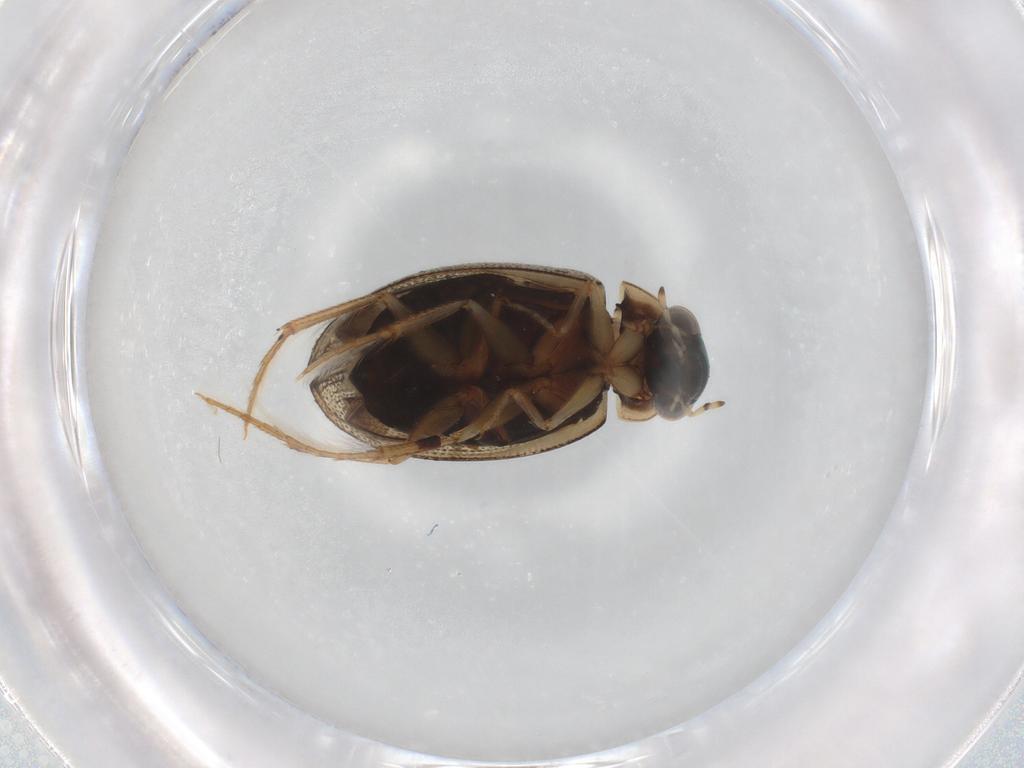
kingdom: Animalia
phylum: Arthropoda
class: Insecta
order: Coleoptera
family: Hydrophilidae
